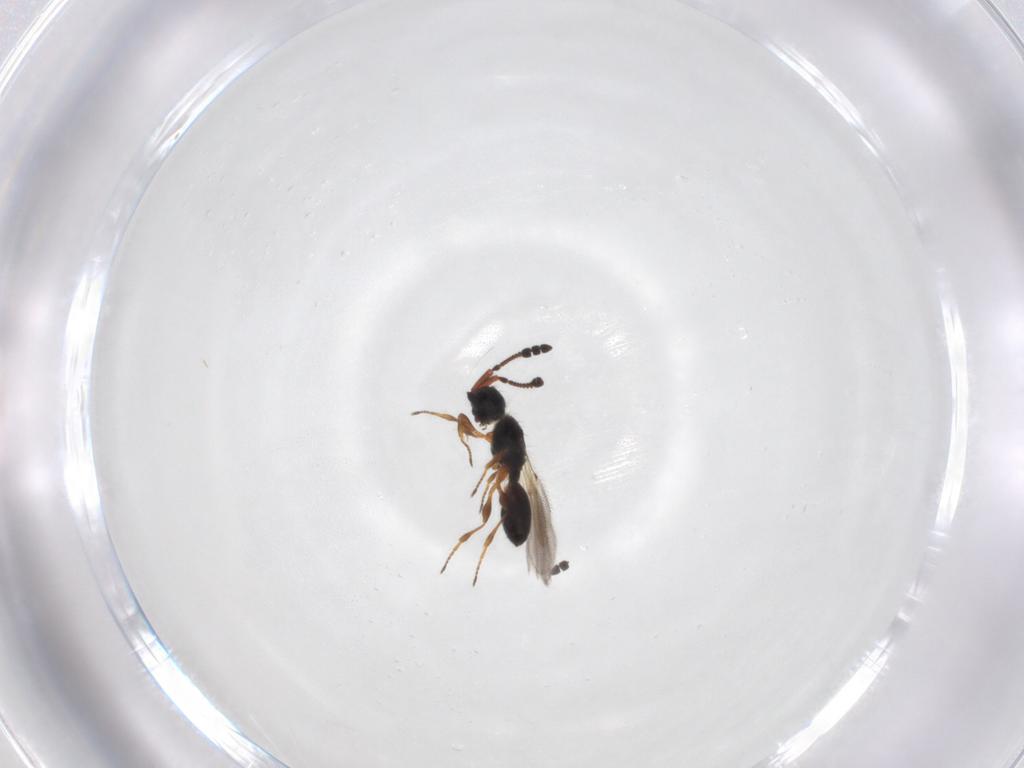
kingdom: Animalia
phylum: Arthropoda
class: Insecta
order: Hymenoptera
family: Diapriidae
